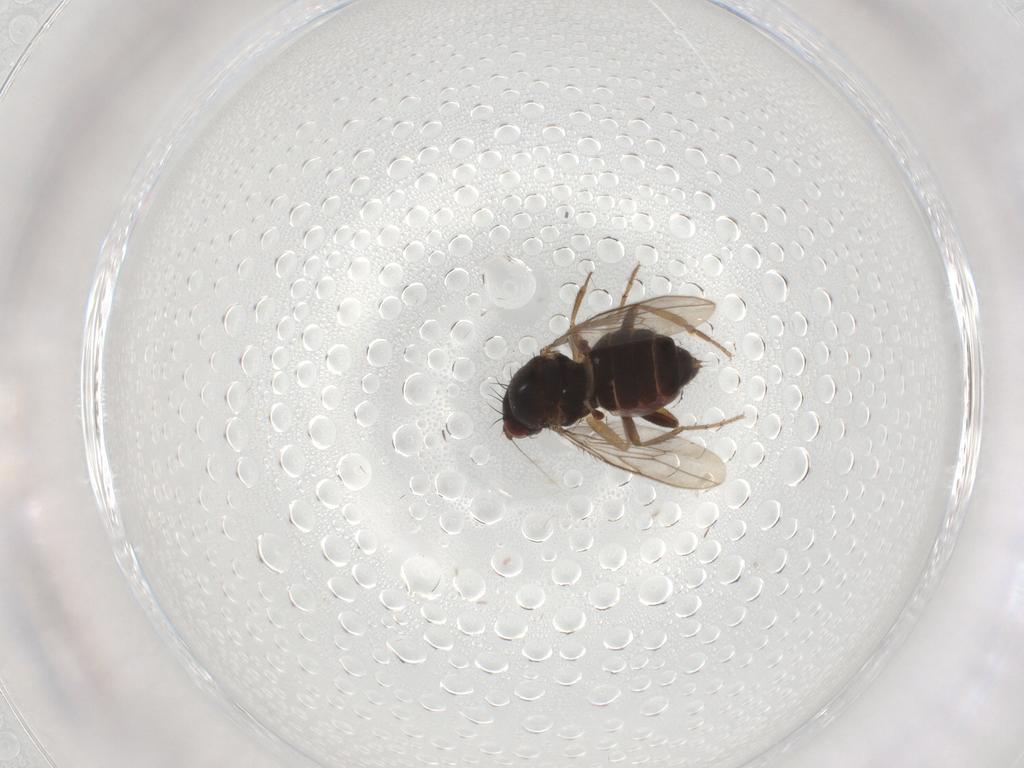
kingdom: Animalia
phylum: Arthropoda
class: Insecta
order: Diptera
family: Sphaeroceridae
